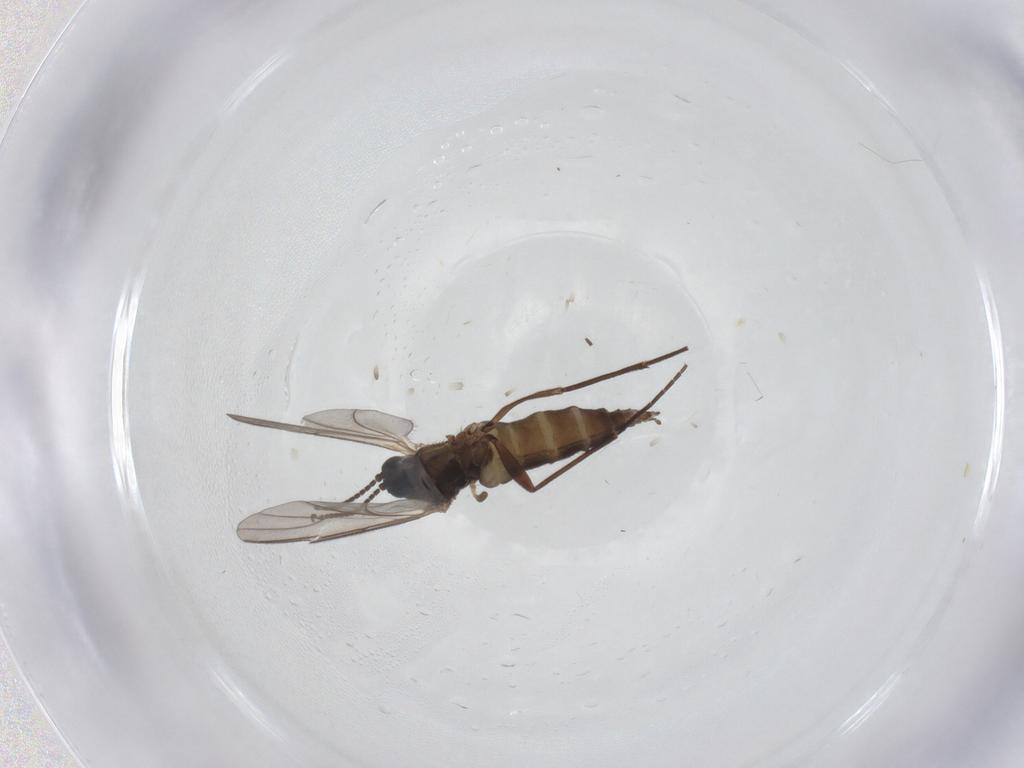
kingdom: Animalia
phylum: Arthropoda
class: Insecta
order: Diptera
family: Sciaridae
